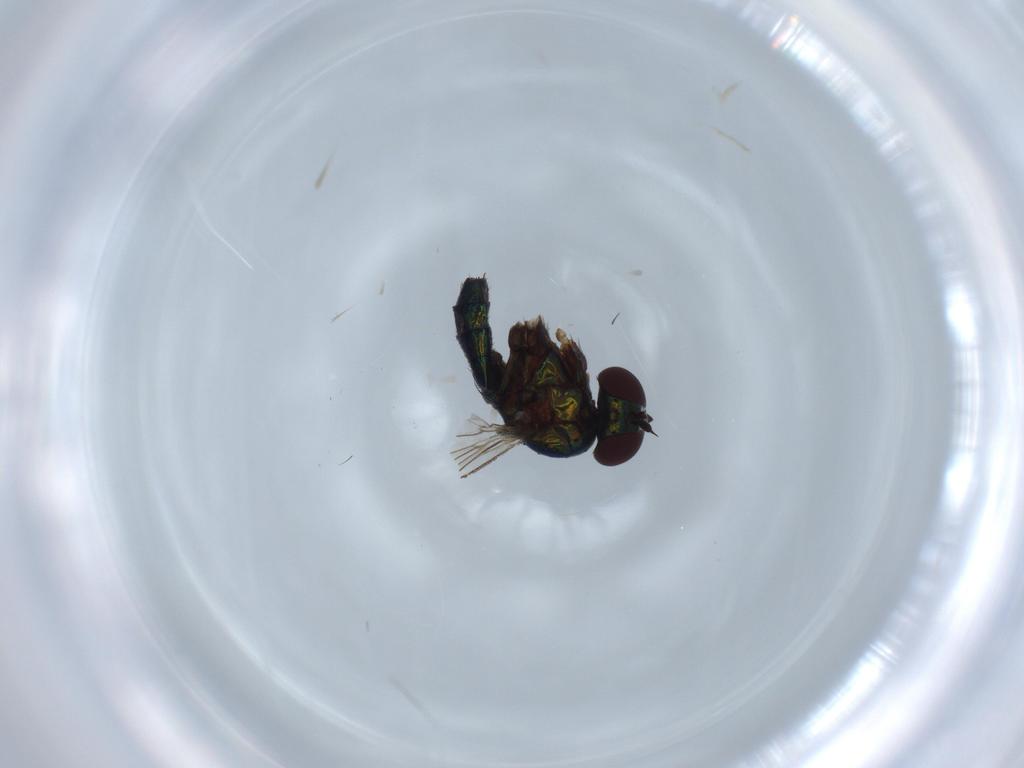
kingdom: Animalia
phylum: Arthropoda
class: Insecta
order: Diptera
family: Dolichopodidae
